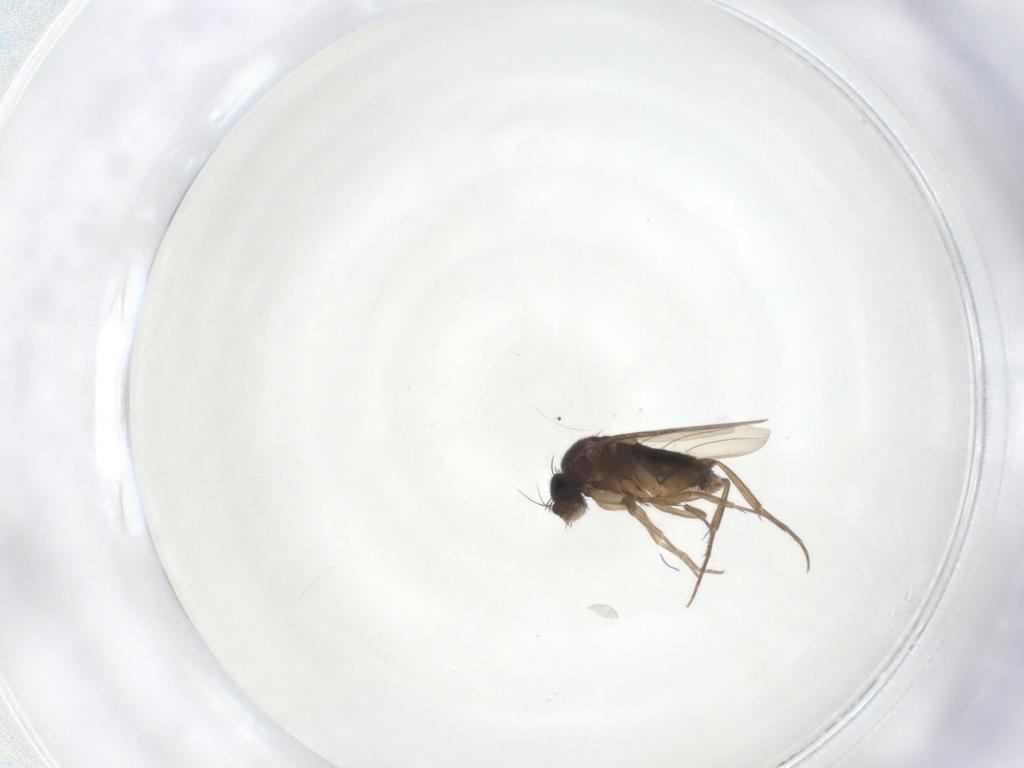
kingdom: Animalia
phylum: Arthropoda
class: Insecta
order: Diptera
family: Phoridae
